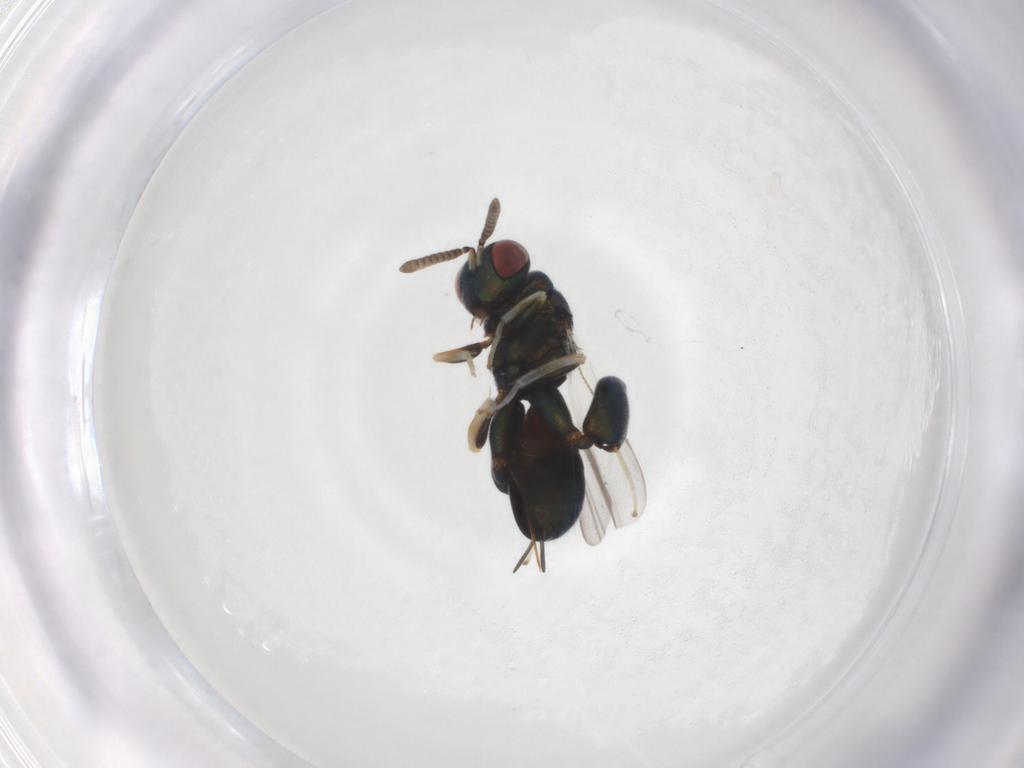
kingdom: Animalia
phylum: Arthropoda
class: Insecta
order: Hymenoptera
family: Torymidae
